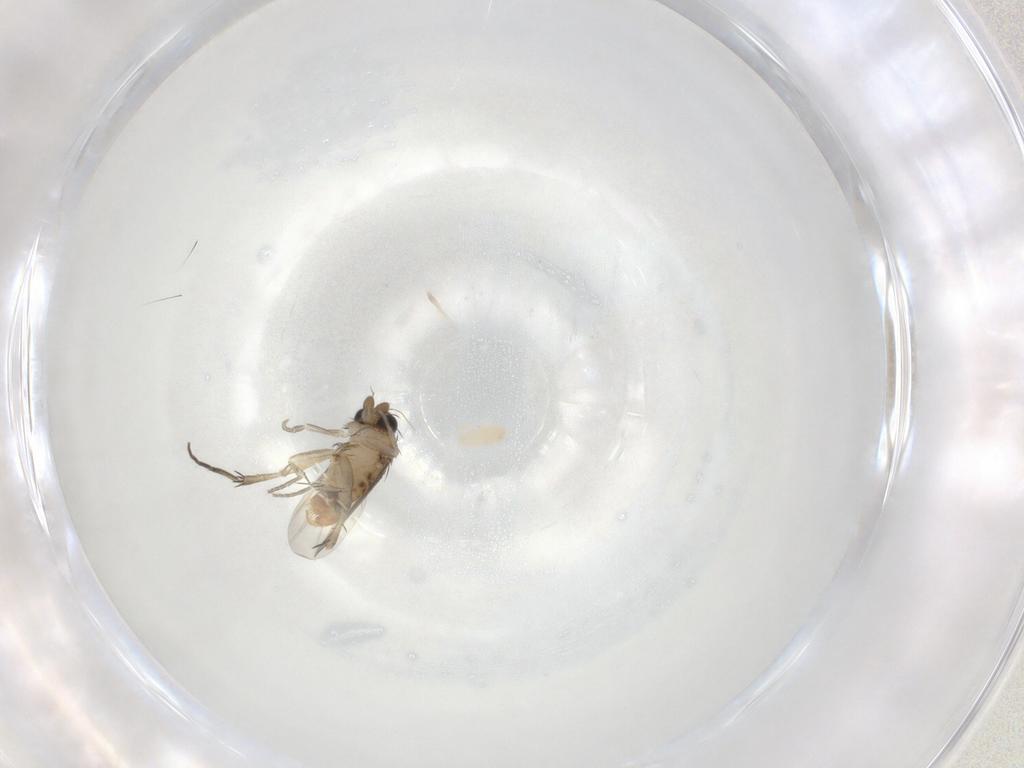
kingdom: Animalia
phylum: Arthropoda
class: Insecta
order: Diptera
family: Phoridae
